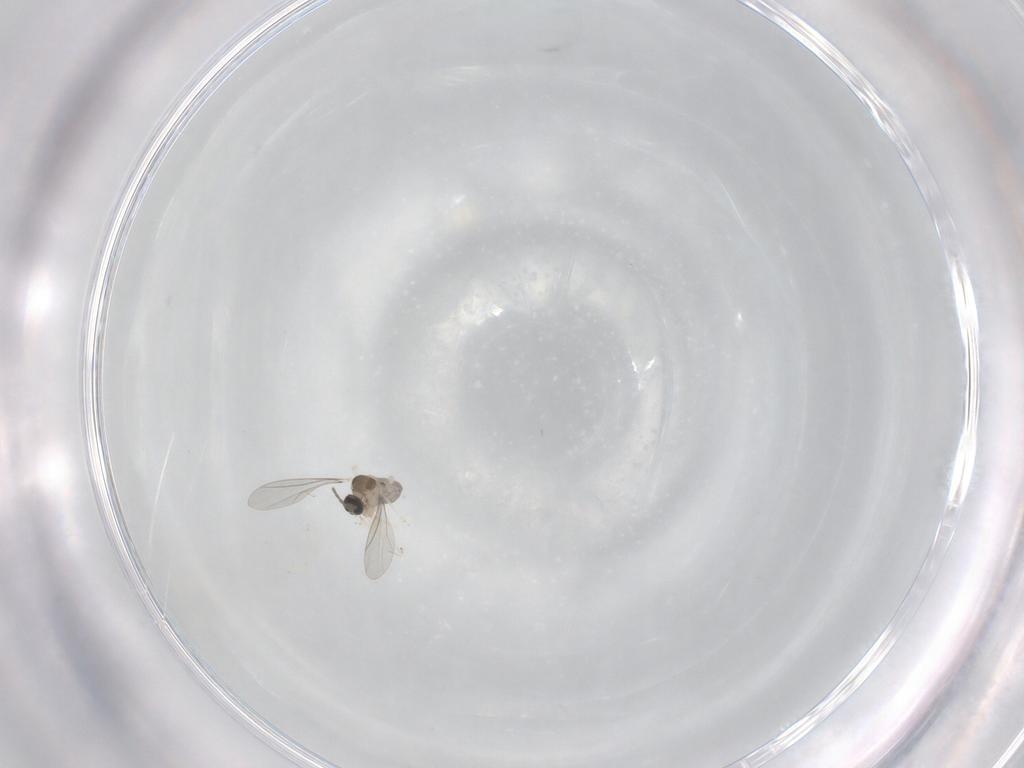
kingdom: Animalia
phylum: Arthropoda
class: Insecta
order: Diptera
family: Cecidomyiidae
